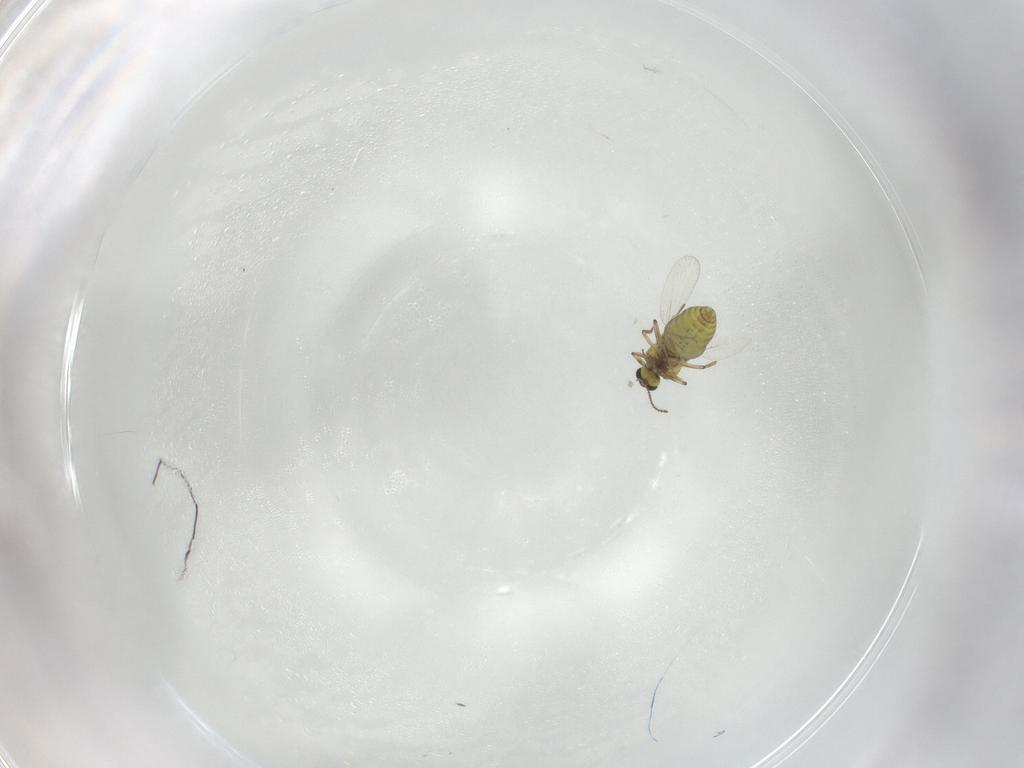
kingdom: Animalia
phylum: Arthropoda
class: Insecta
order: Diptera
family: Ceratopogonidae
